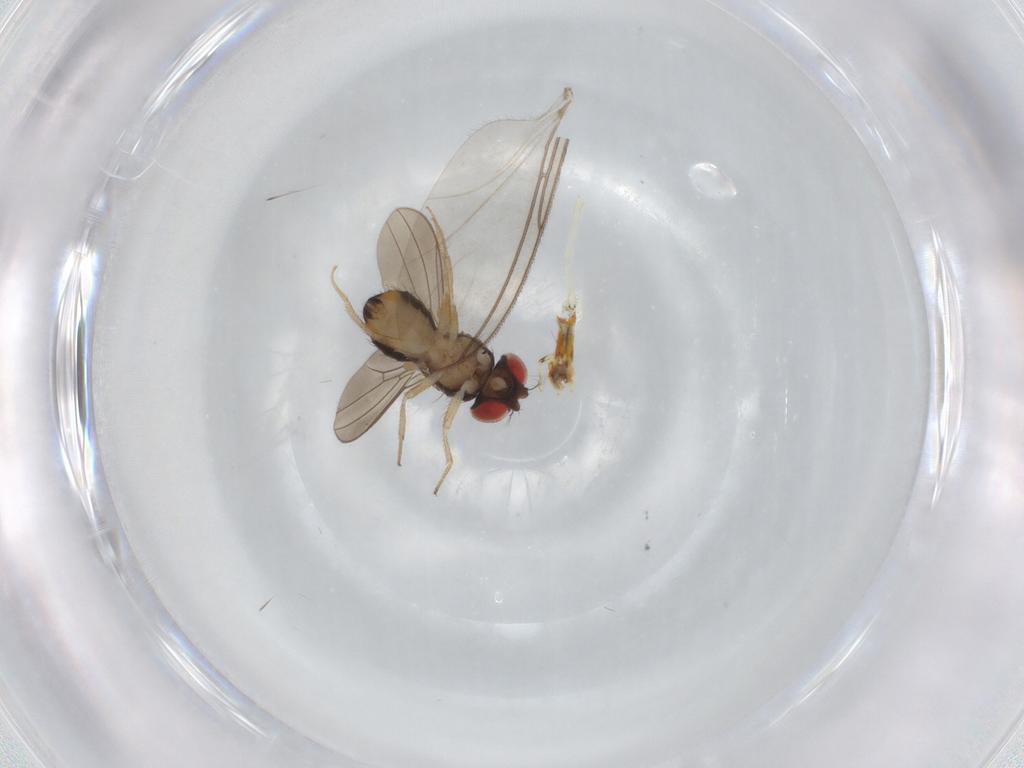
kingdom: Animalia
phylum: Arthropoda
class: Insecta
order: Diptera
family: Drosophilidae
